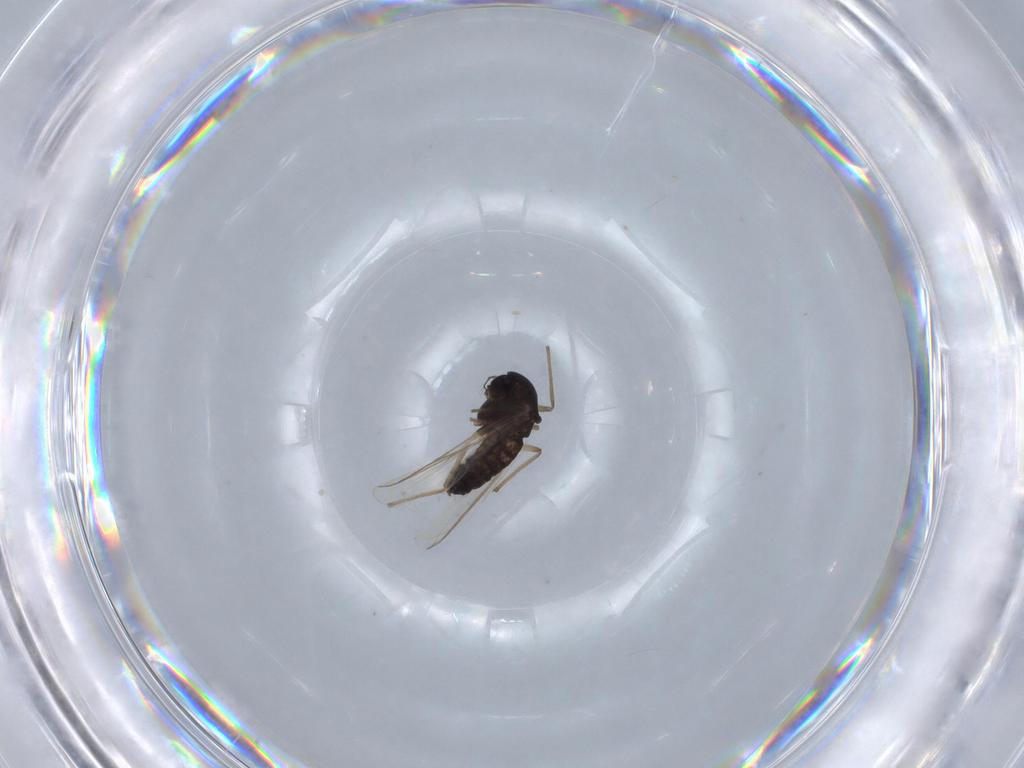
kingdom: Animalia
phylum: Arthropoda
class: Insecta
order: Diptera
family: Chironomidae
